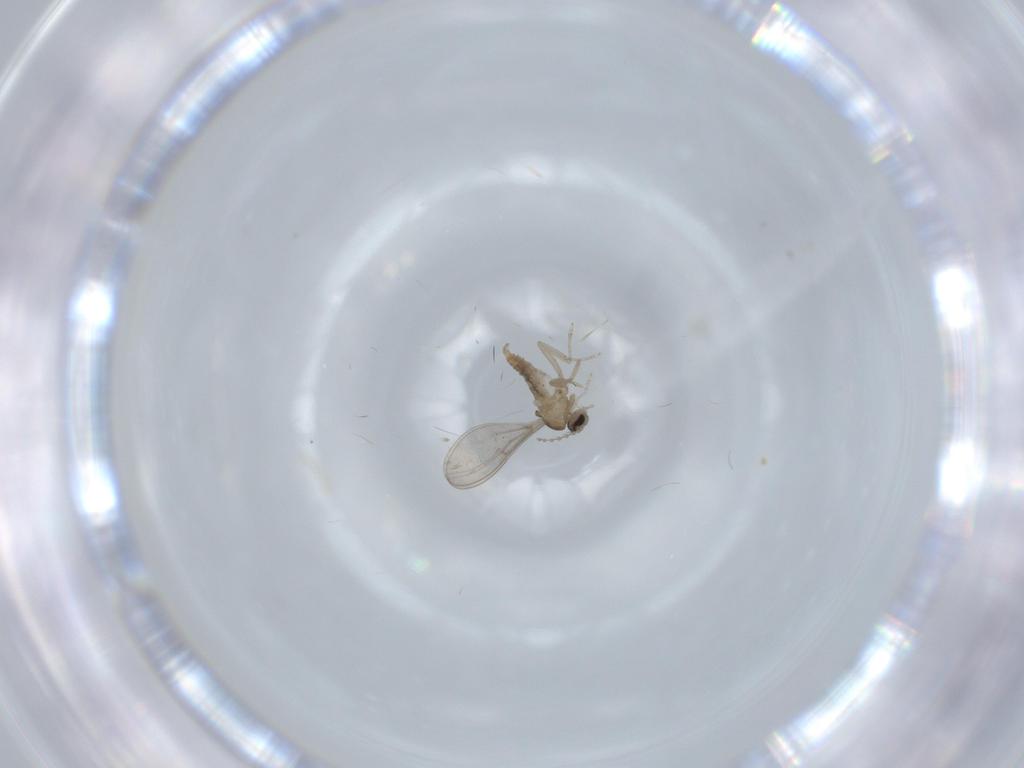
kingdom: Animalia
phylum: Arthropoda
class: Insecta
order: Diptera
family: Cecidomyiidae
